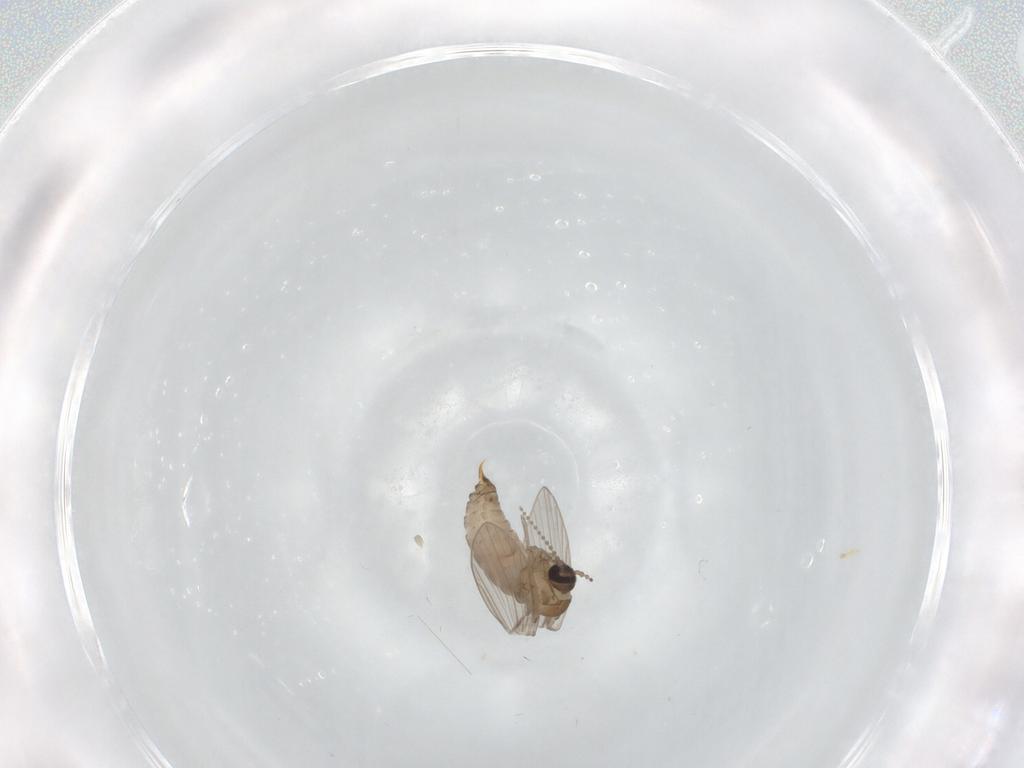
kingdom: Animalia
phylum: Arthropoda
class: Insecta
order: Diptera
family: Psychodidae
